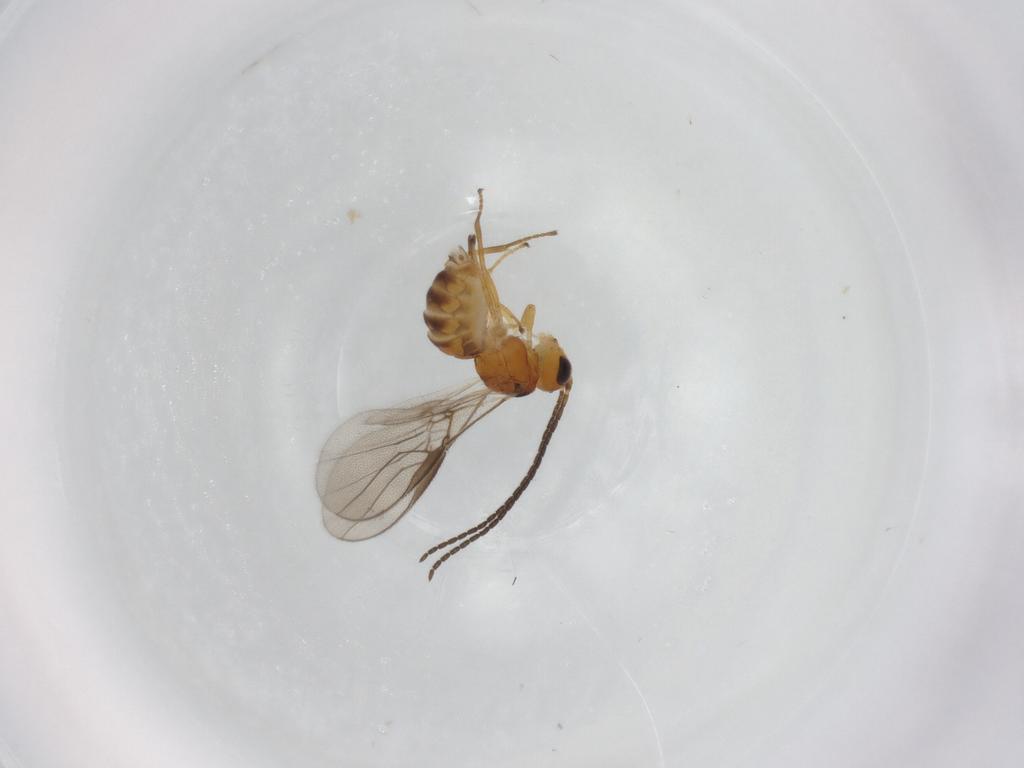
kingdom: Animalia
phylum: Arthropoda
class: Insecta
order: Hymenoptera
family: Braconidae
